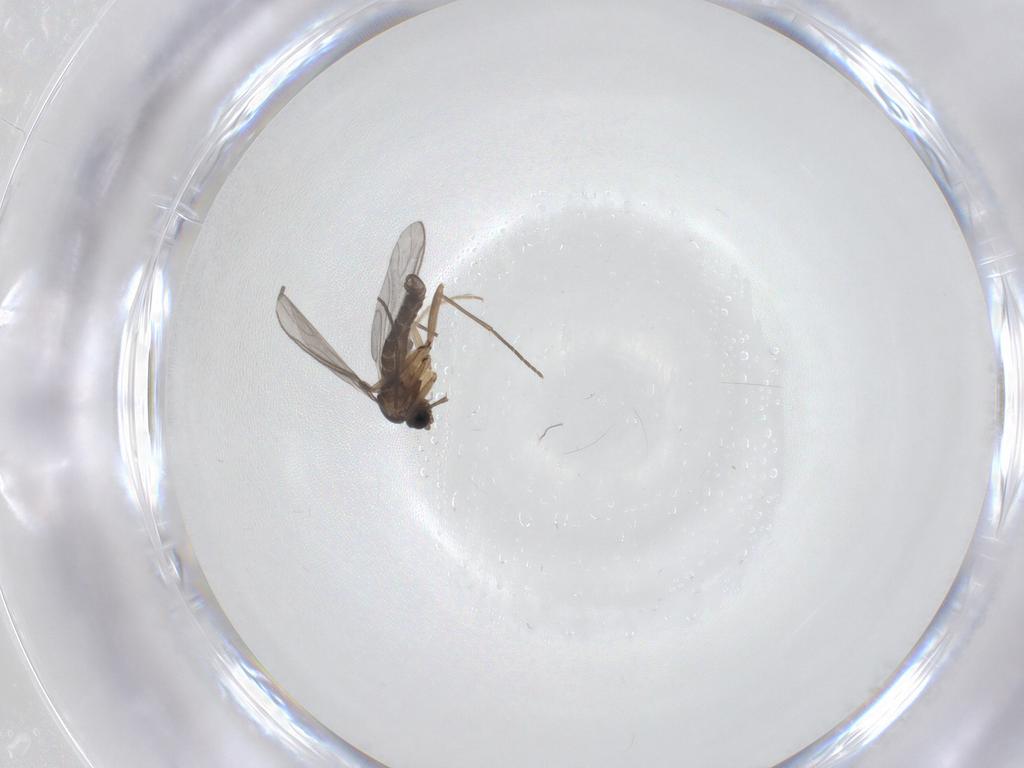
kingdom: Animalia
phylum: Arthropoda
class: Insecta
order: Diptera
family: Sciaridae
